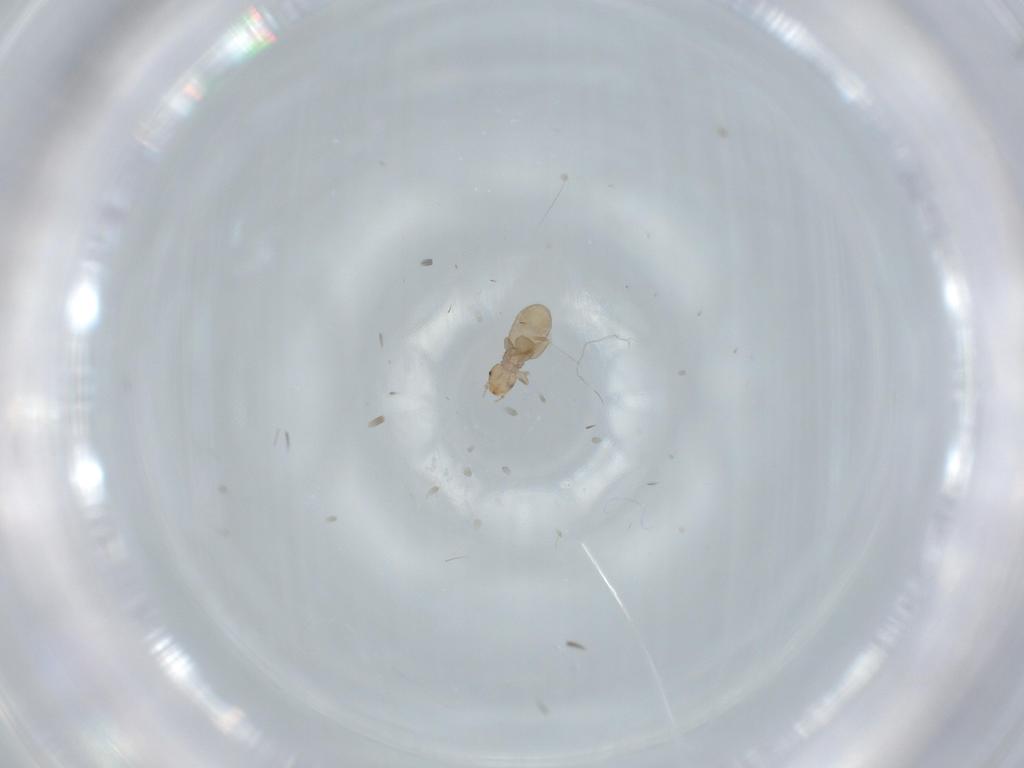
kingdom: Animalia
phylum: Arthropoda
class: Insecta
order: Psocodea
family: Liposcelididae
